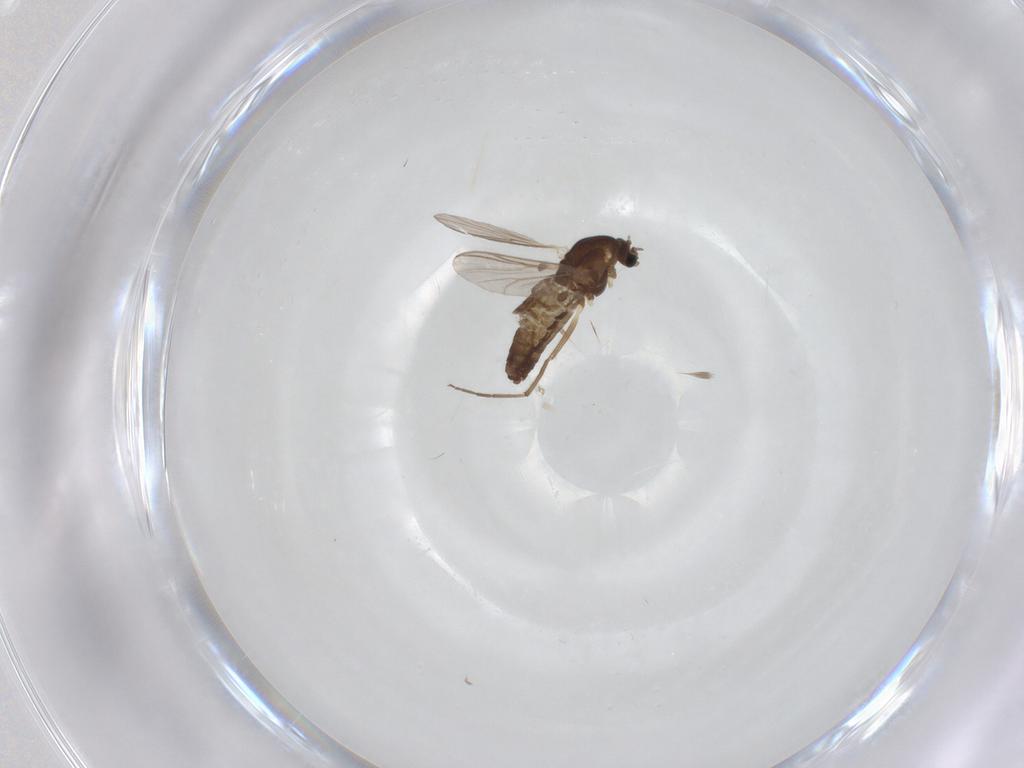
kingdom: Animalia
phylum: Arthropoda
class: Insecta
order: Diptera
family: Chironomidae
